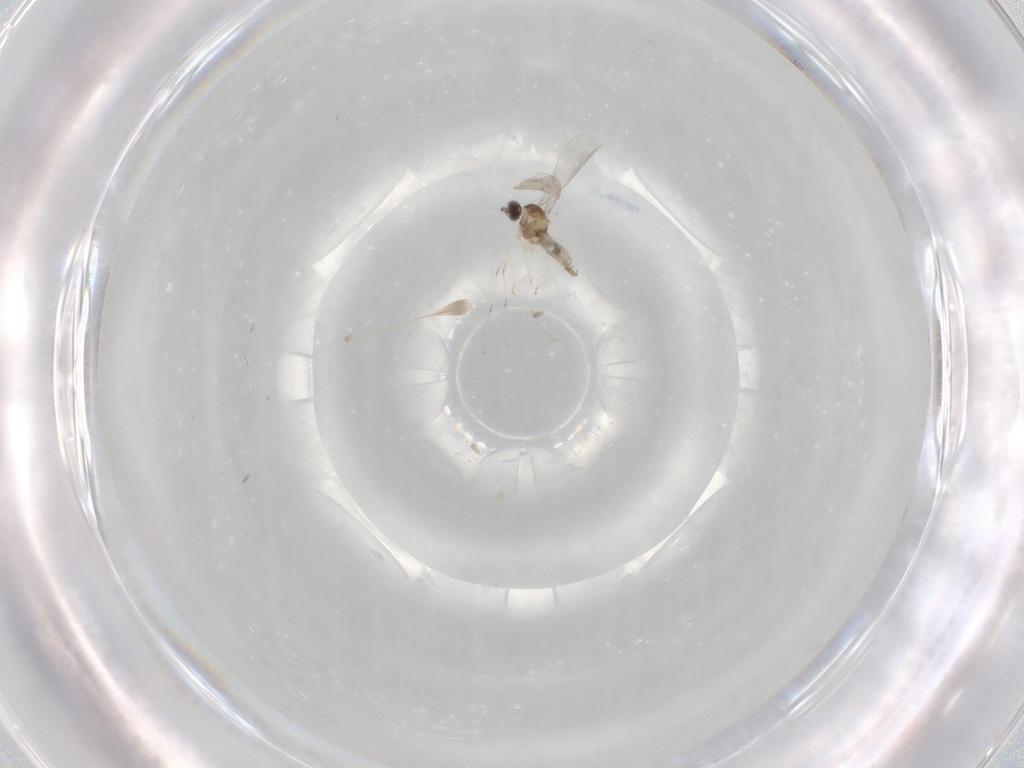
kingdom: Animalia
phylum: Arthropoda
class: Insecta
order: Diptera
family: Cecidomyiidae
